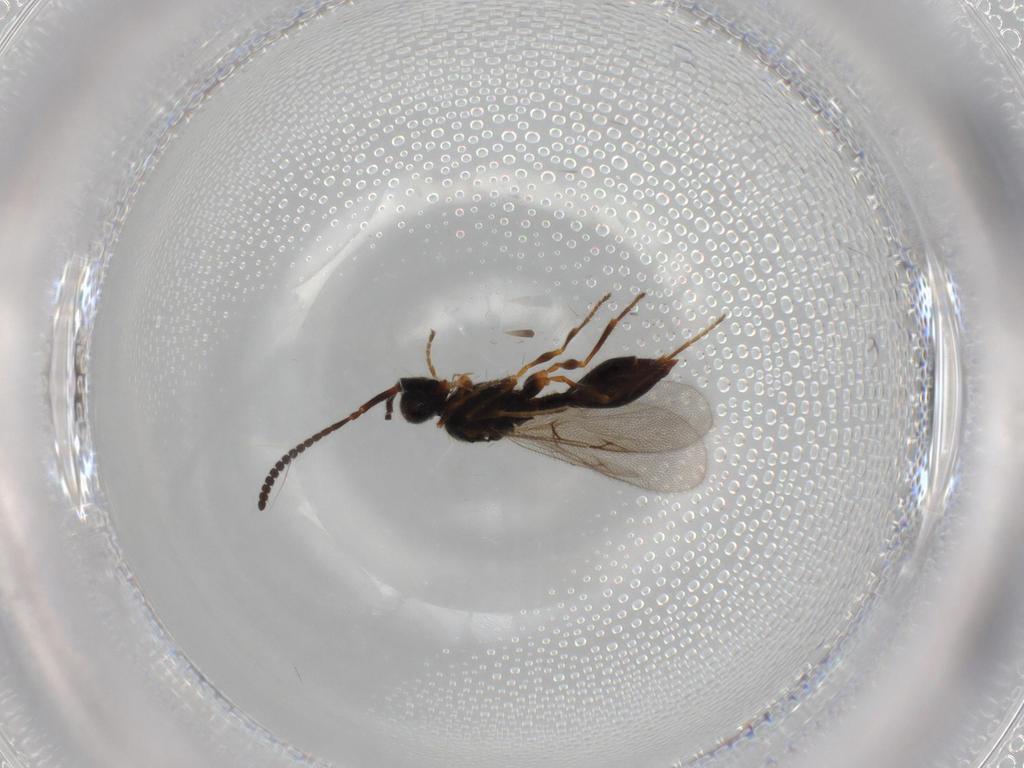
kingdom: Animalia
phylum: Arthropoda
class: Insecta
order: Hymenoptera
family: Diapriidae
